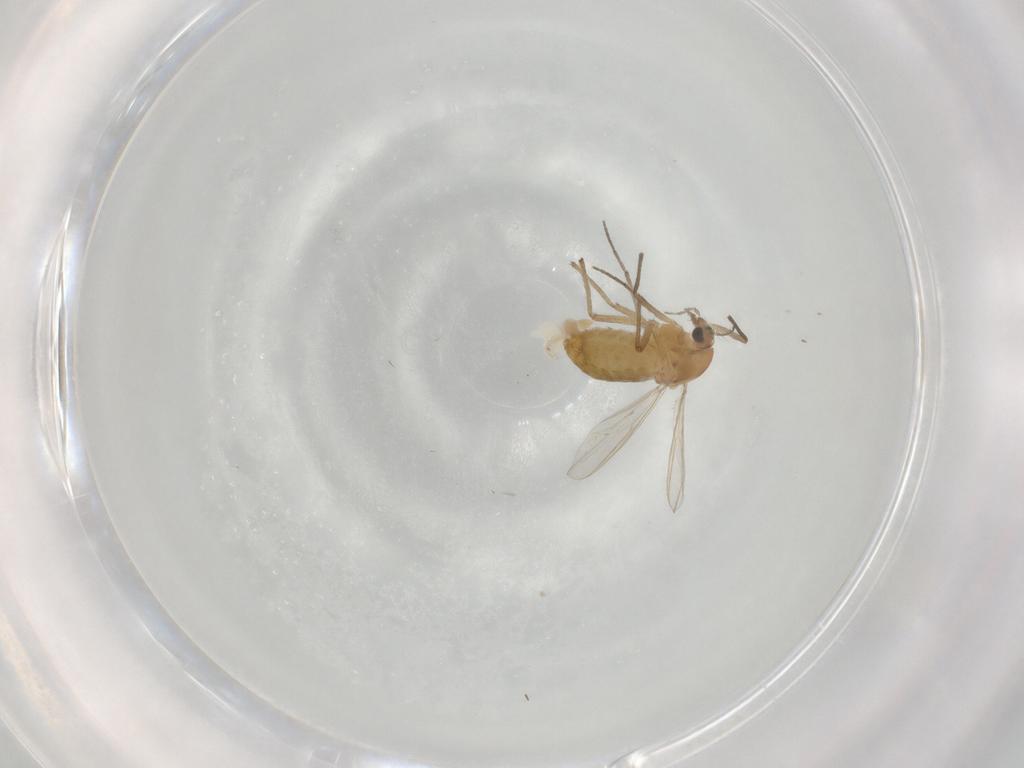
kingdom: Animalia
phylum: Arthropoda
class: Insecta
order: Diptera
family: Chironomidae
